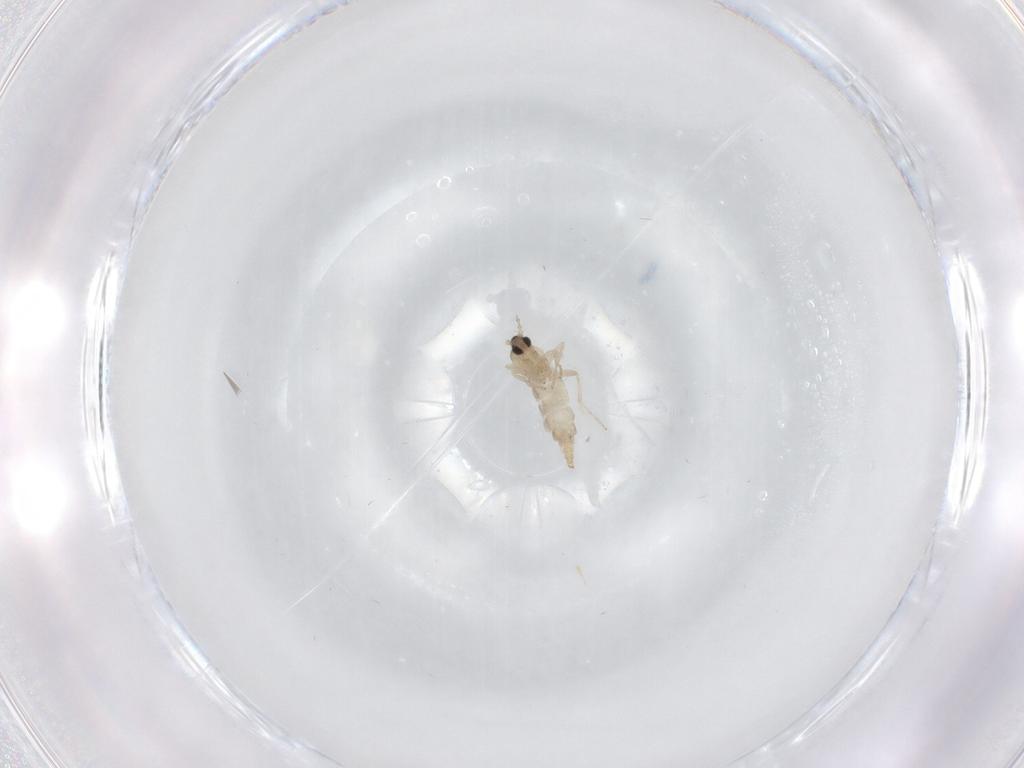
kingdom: Animalia
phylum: Arthropoda
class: Insecta
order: Diptera
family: Cecidomyiidae
